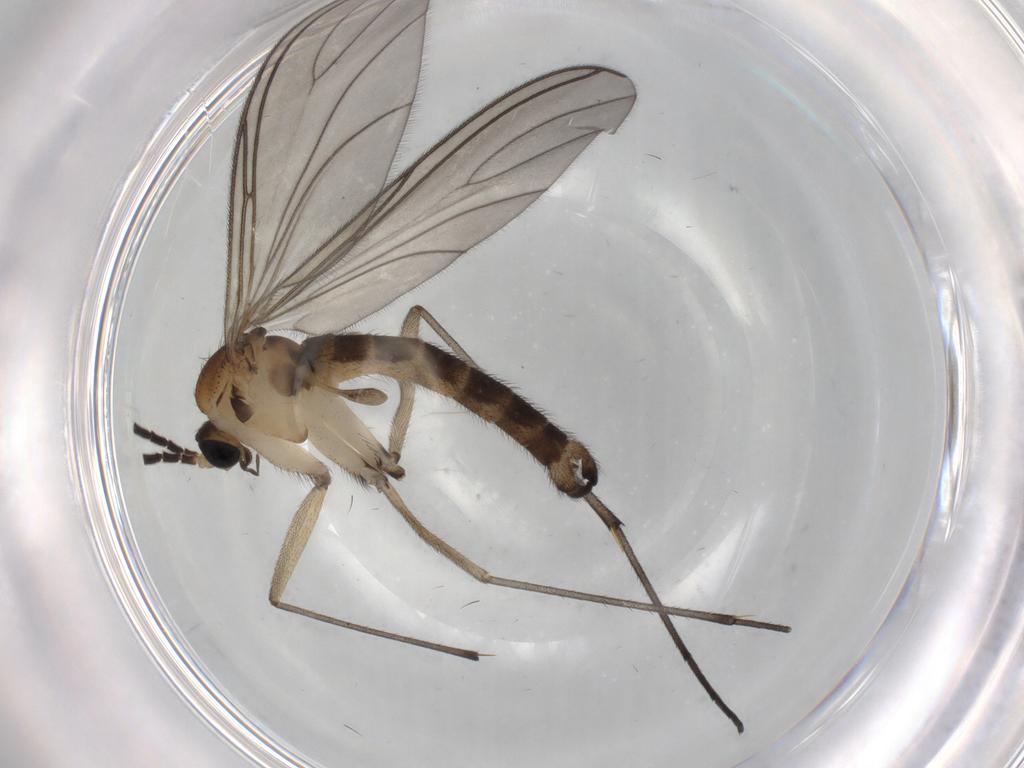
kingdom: Animalia
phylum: Arthropoda
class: Insecta
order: Diptera
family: Sciaridae
